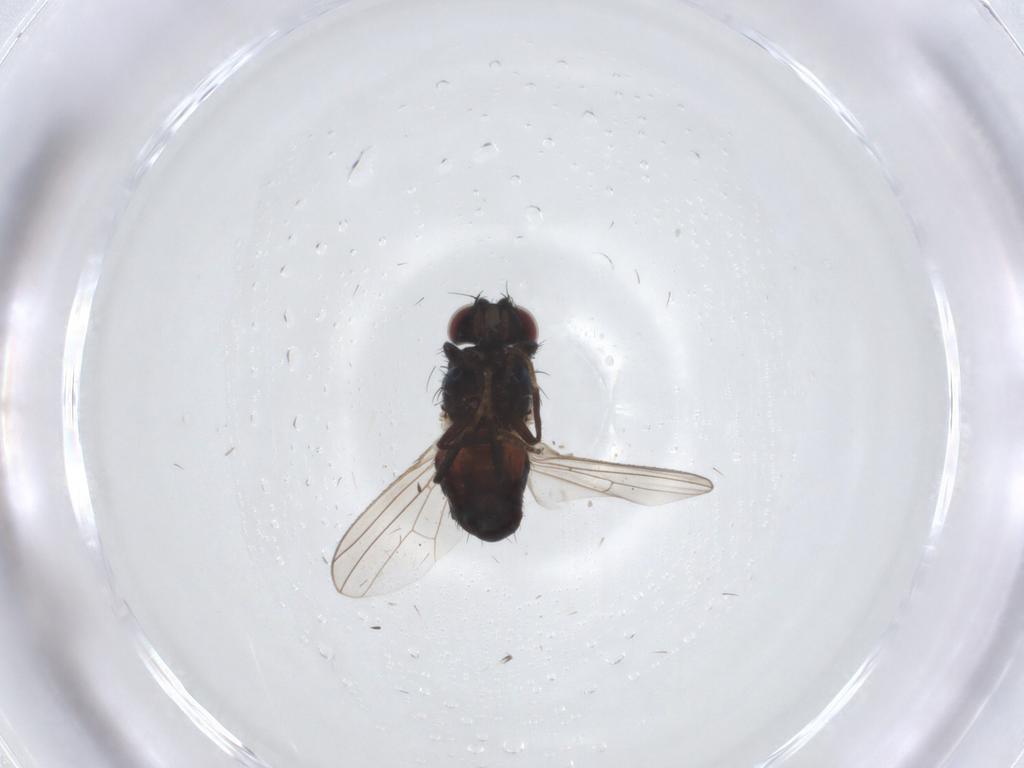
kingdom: Animalia
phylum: Arthropoda
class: Insecta
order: Diptera
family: Carnidae
